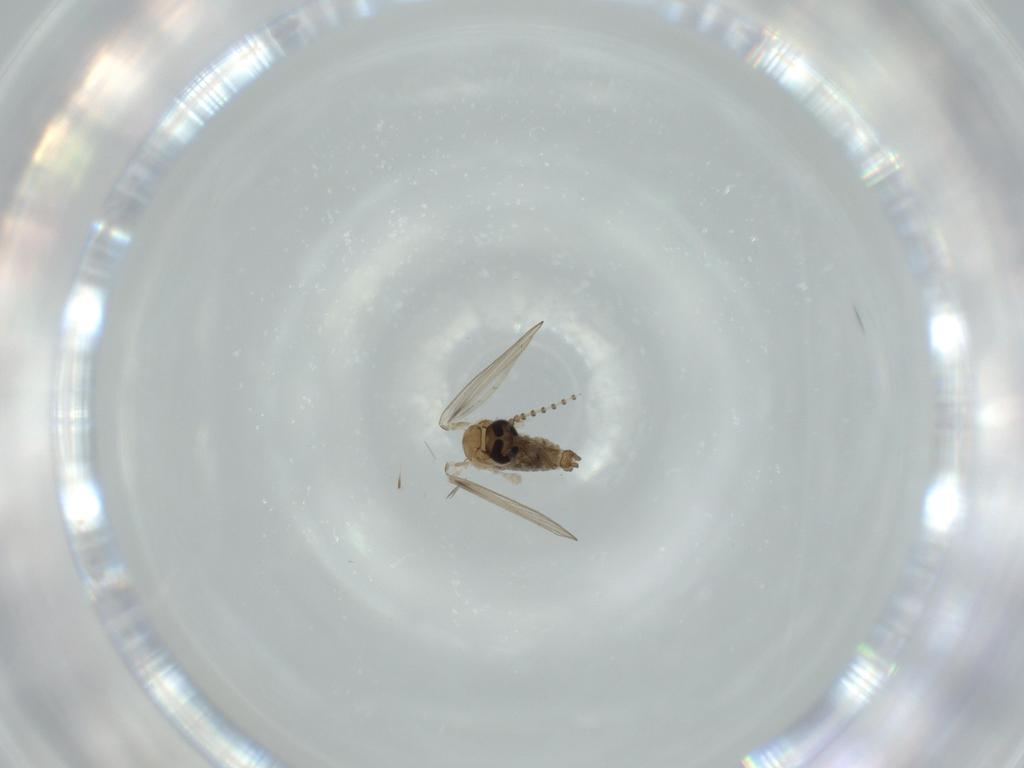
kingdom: Animalia
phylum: Arthropoda
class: Insecta
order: Diptera
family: Psychodidae
